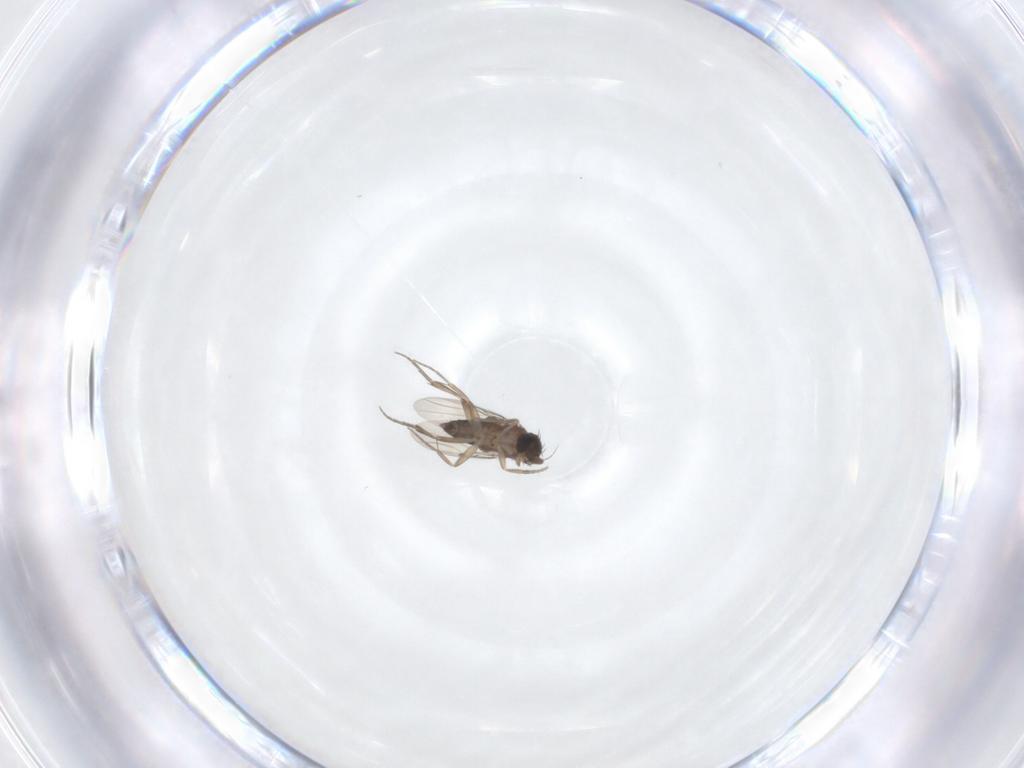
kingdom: Animalia
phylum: Arthropoda
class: Insecta
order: Diptera
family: Phoridae
